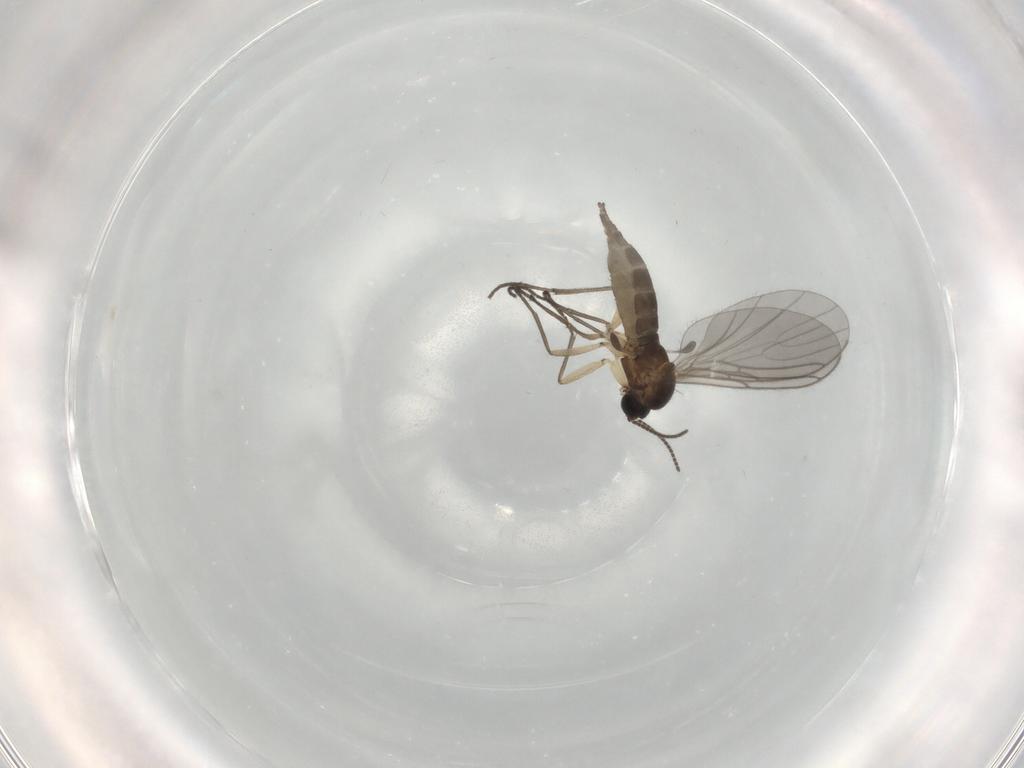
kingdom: Animalia
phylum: Arthropoda
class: Insecta
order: Diptera
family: Sciaridae
